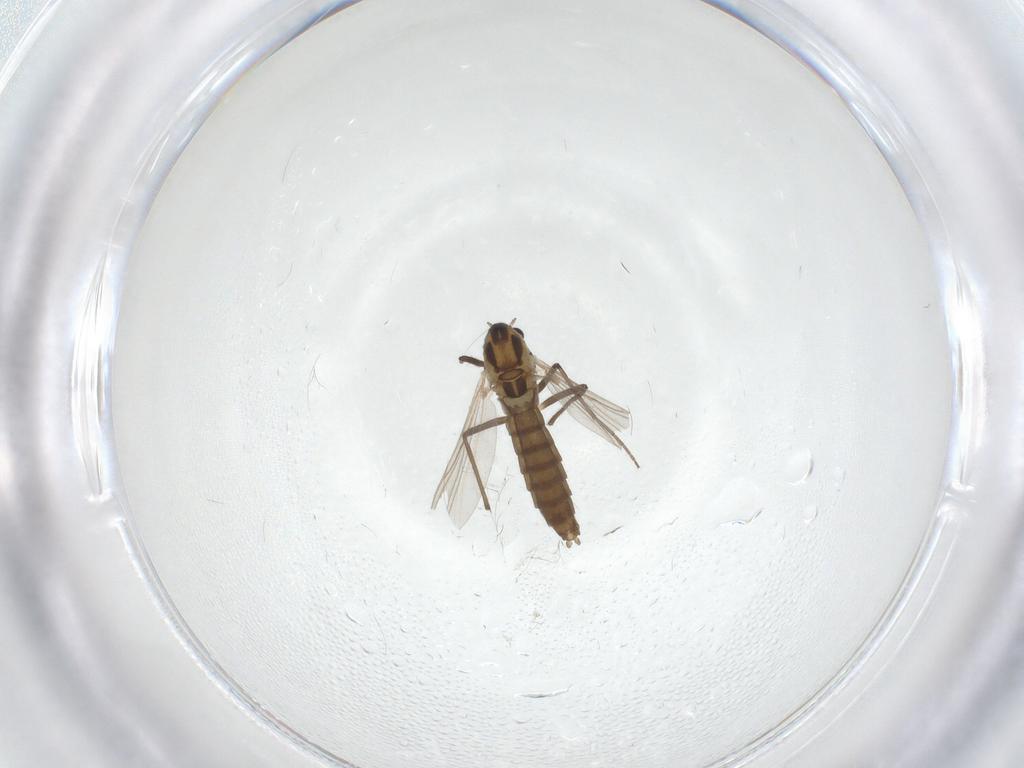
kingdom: Animalia
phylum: Arthropoda
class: Insecta
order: Diptera
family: Chironomidae
